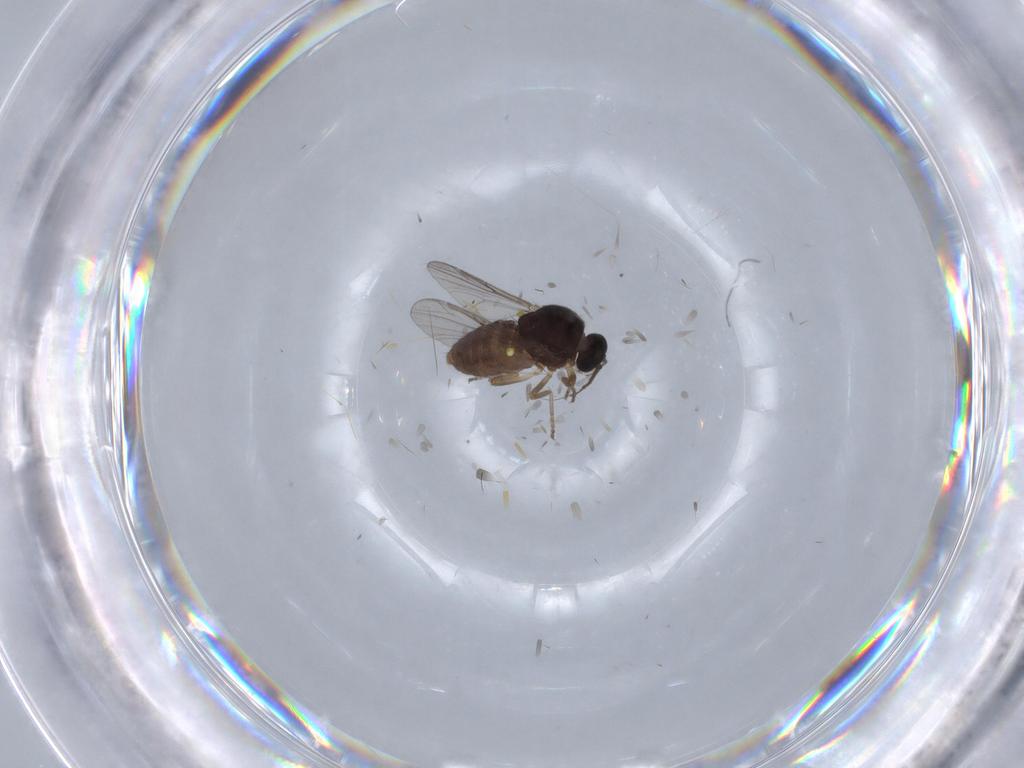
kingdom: Animalia
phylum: Arthropoda
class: Insecta
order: Diptera
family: Ceratopogonidae
